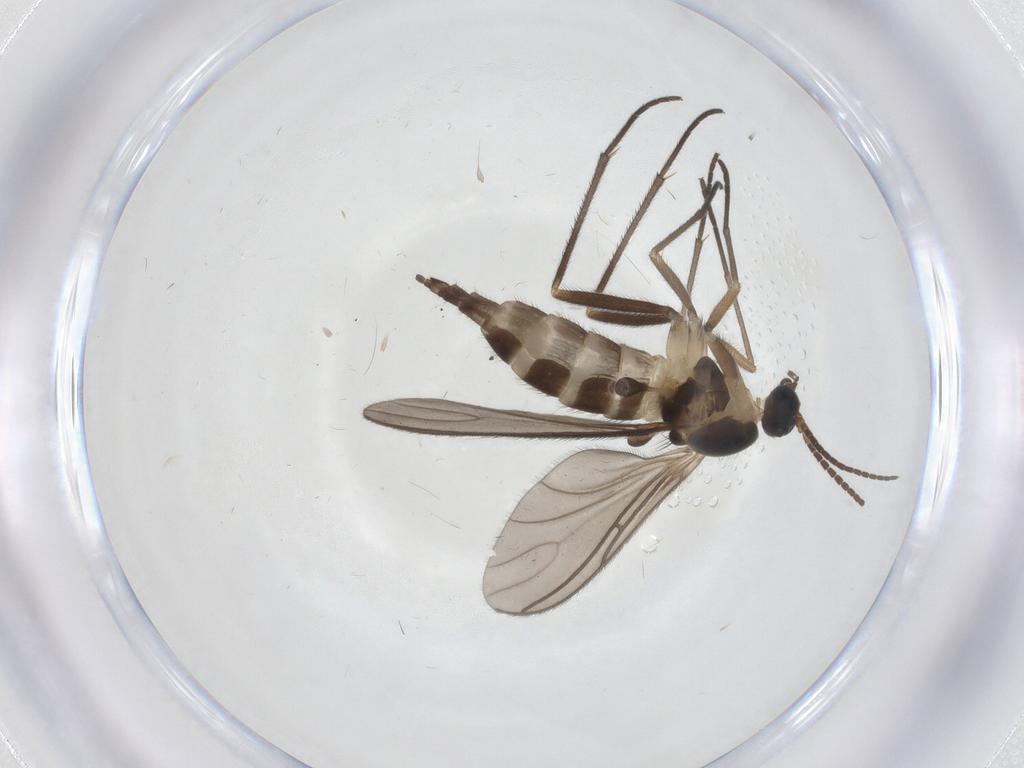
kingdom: Animalia
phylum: Arthropoda
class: Insecta
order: Diptera
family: Sciaridae
